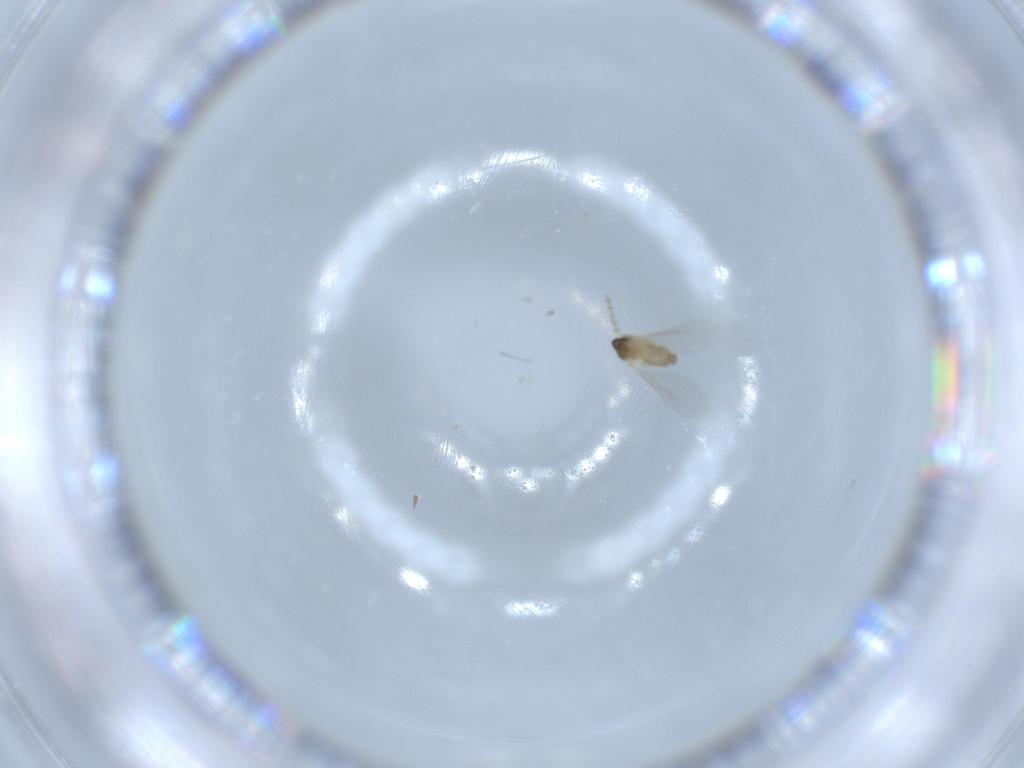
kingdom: Animalia
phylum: Arthropoda
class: Insecta
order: Diptera
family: Cecidomyiidae
